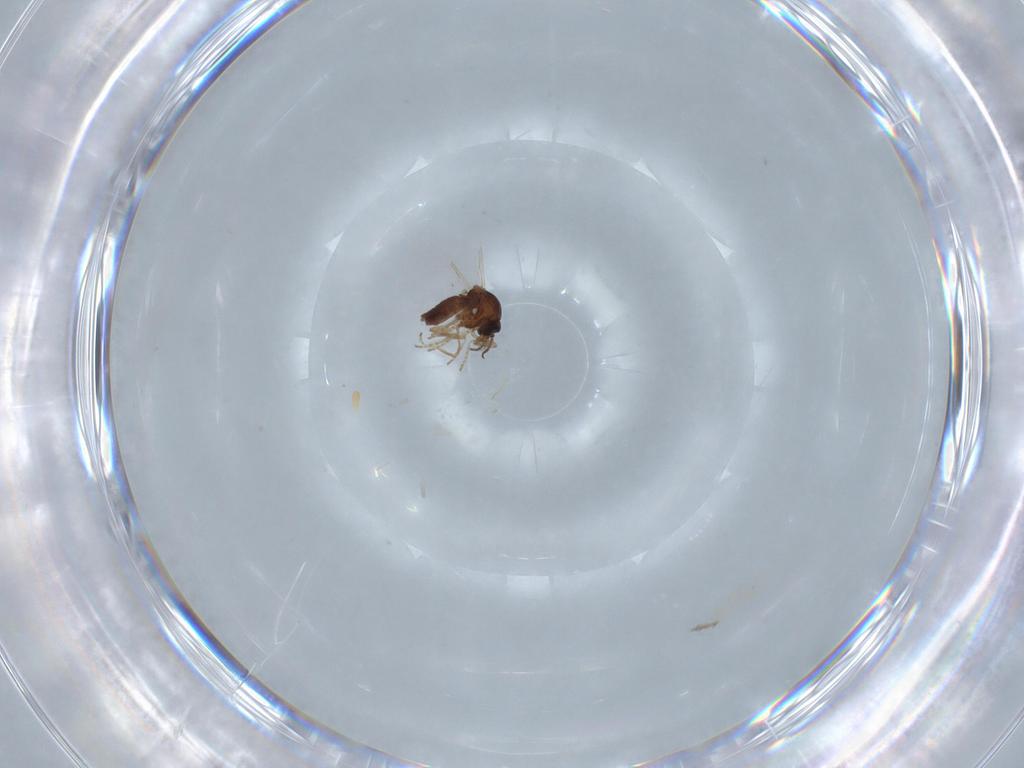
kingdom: Animalia
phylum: Arthropoda
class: Insecta
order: Diptera
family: Ceratopogonidae
